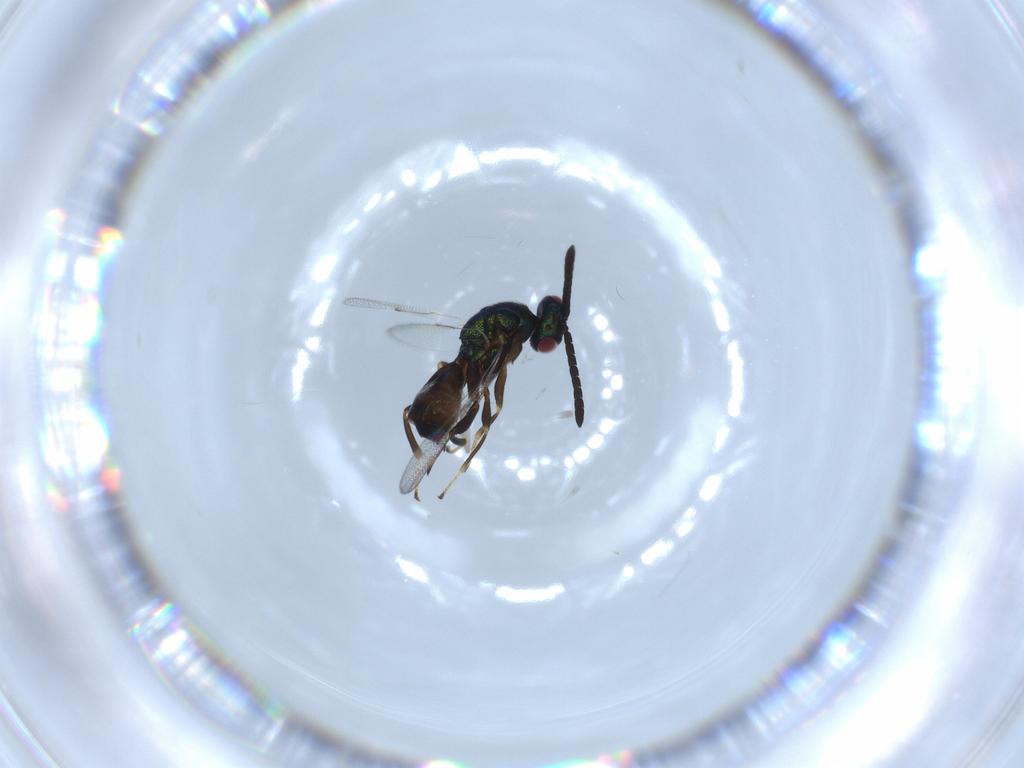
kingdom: Animalia
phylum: Arthropoda
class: Insecta
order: Hymenoptera
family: Torymidae
